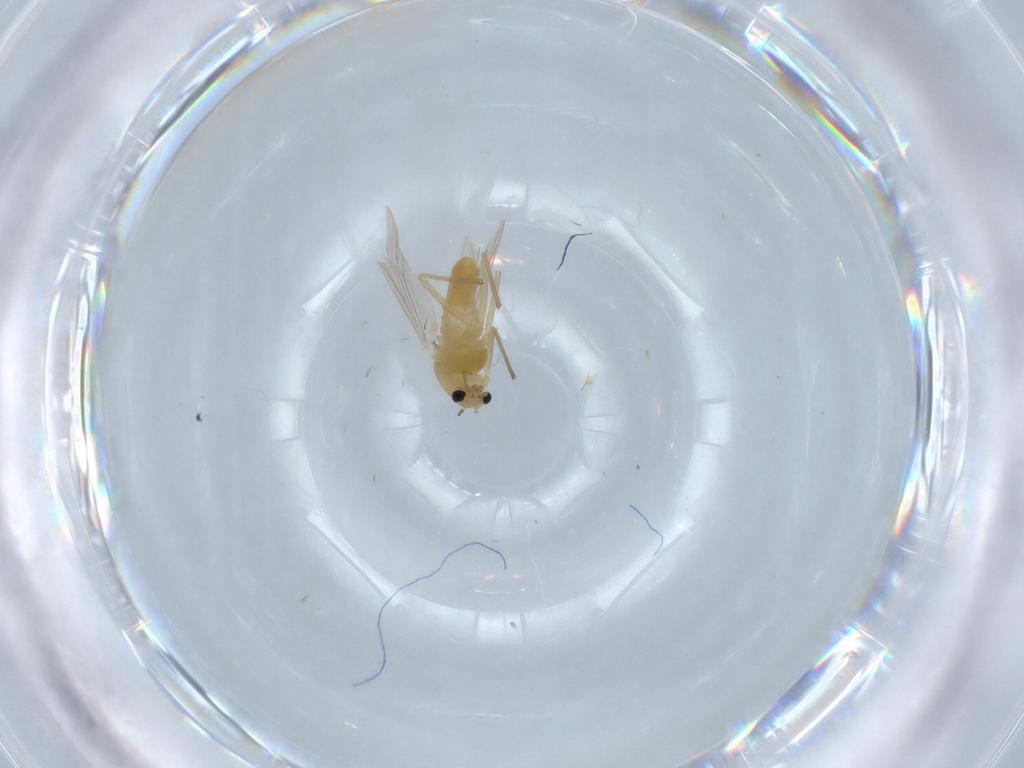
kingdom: Animalia
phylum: Arthropoda
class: Insecta
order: Diptera
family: Chironomidae
